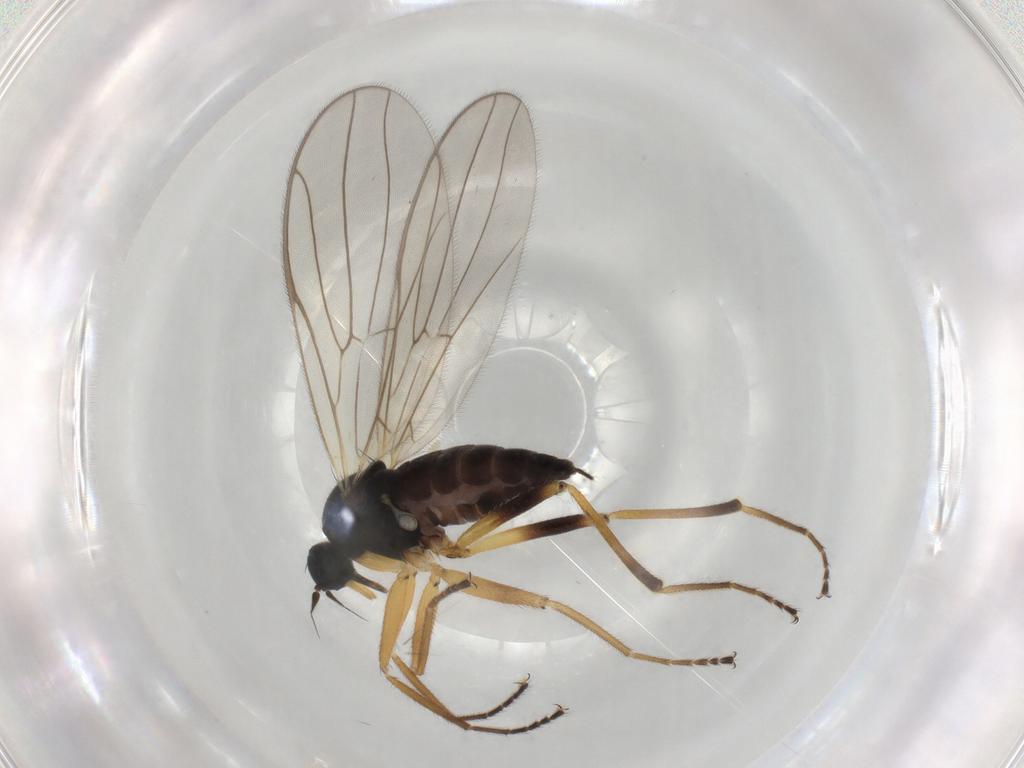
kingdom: Animalia
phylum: Arthropoda
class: Insecta
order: Diptera
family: Hybotidae
